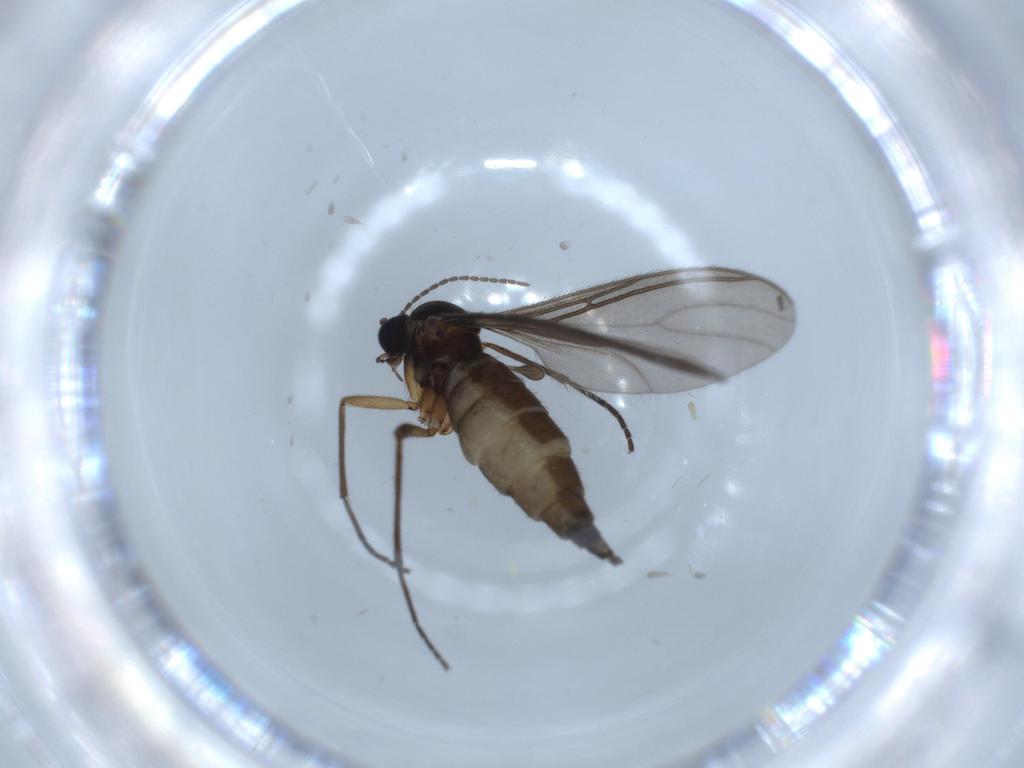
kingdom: Animalia
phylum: Arthropoda
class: Insecta
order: Diptera
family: Sciaridae
